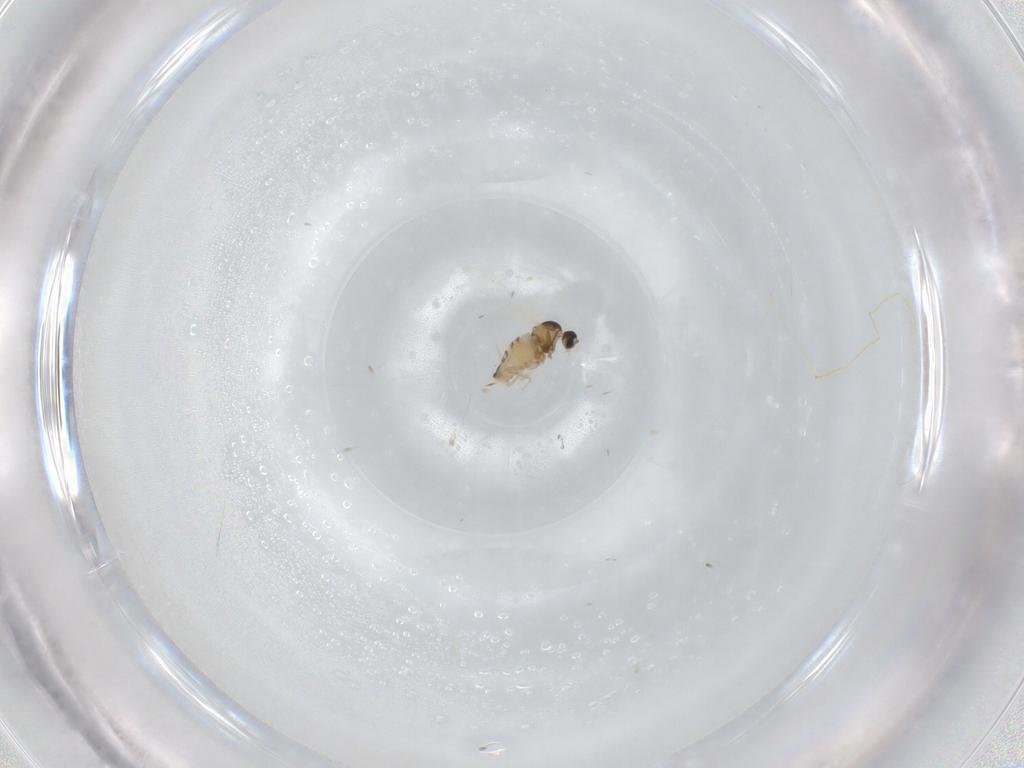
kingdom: Animalia
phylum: Arthropoda
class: Insecta
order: Diptera
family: Cecidomyiidae
